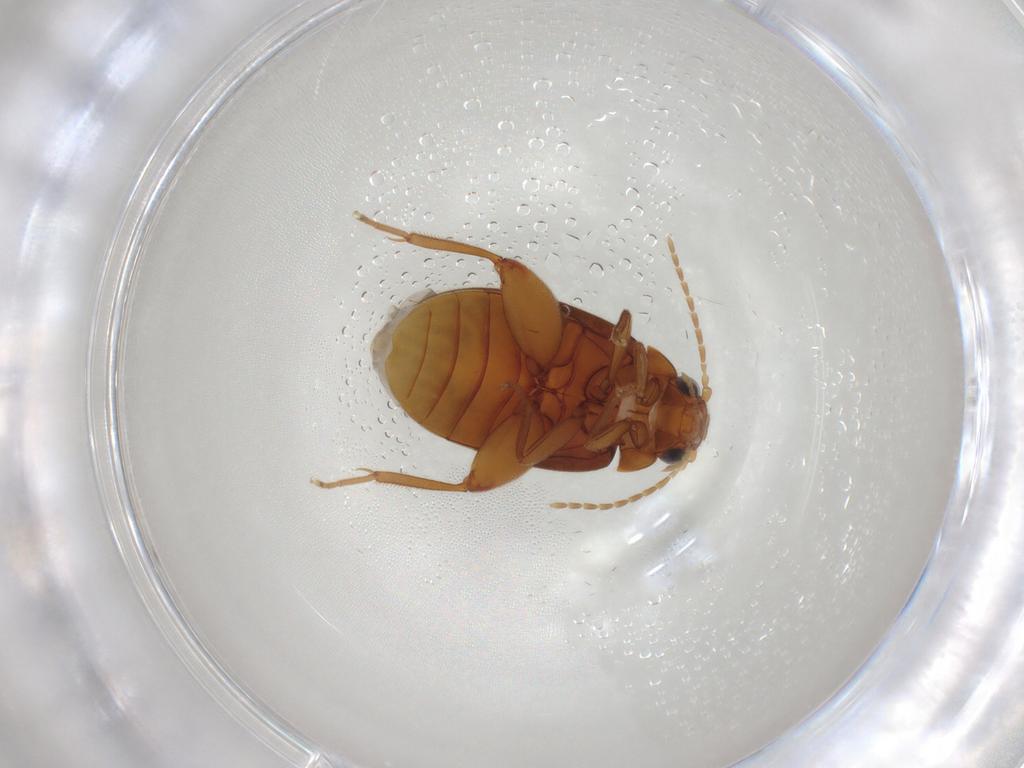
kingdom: Animalia
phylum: Arthropoda
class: Insecta
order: Coleoptera
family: Scirtidae
